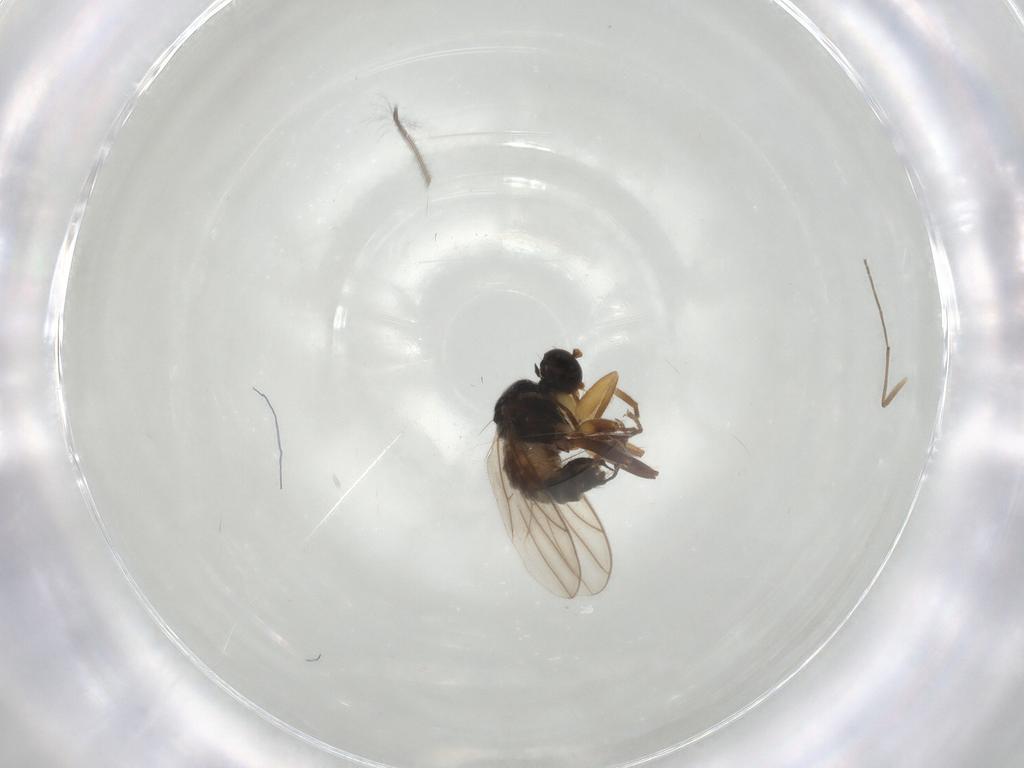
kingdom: Animalia
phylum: Arthropoda
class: Insecta
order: Diptera
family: Hybotidae
